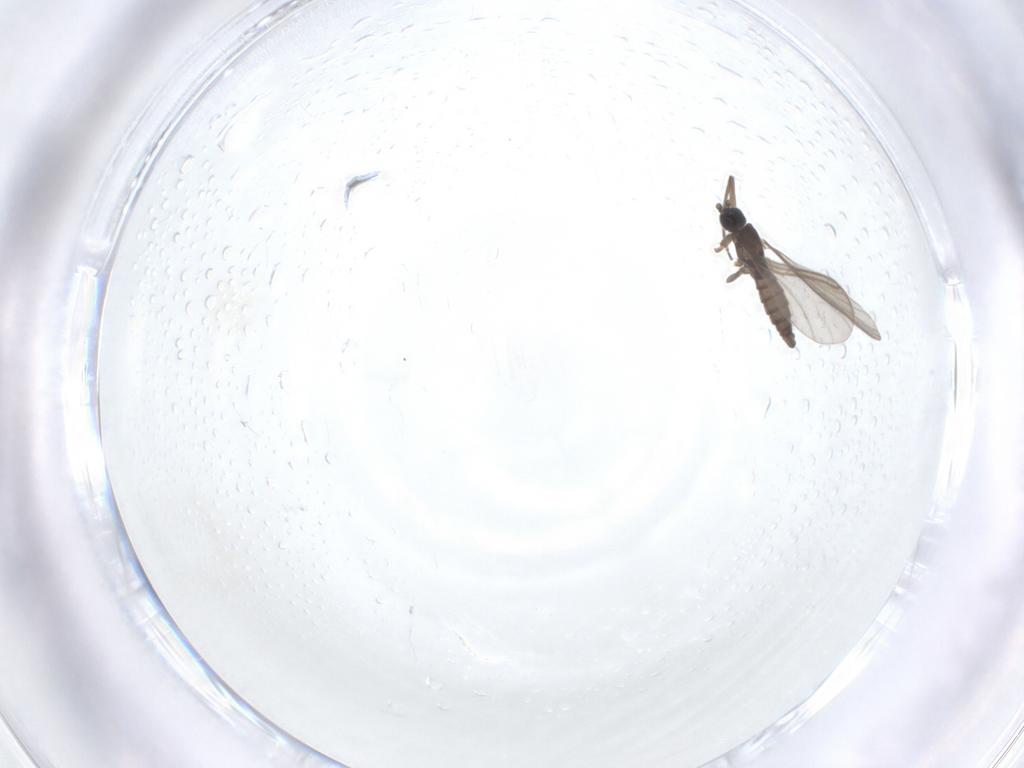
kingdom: Animalia
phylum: Arthropoda
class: Insecta
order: Diptera
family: Sciaridae
